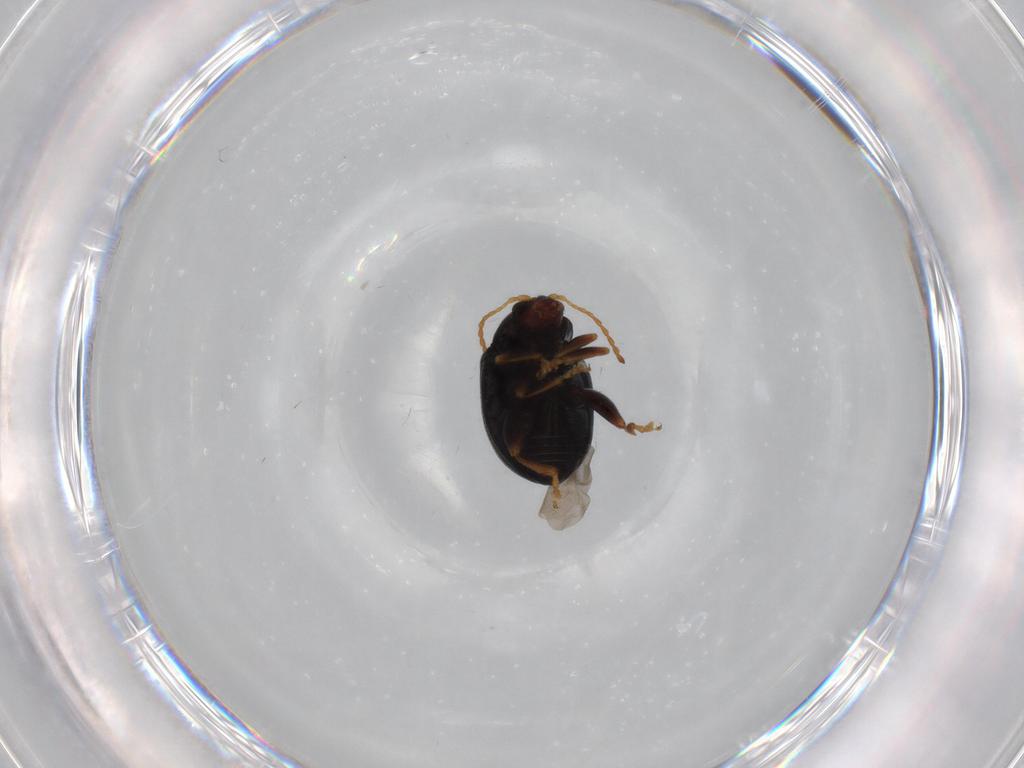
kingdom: Animalia
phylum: Arthropoda
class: Insecta
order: Coleoptera
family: Chrysomelidae
